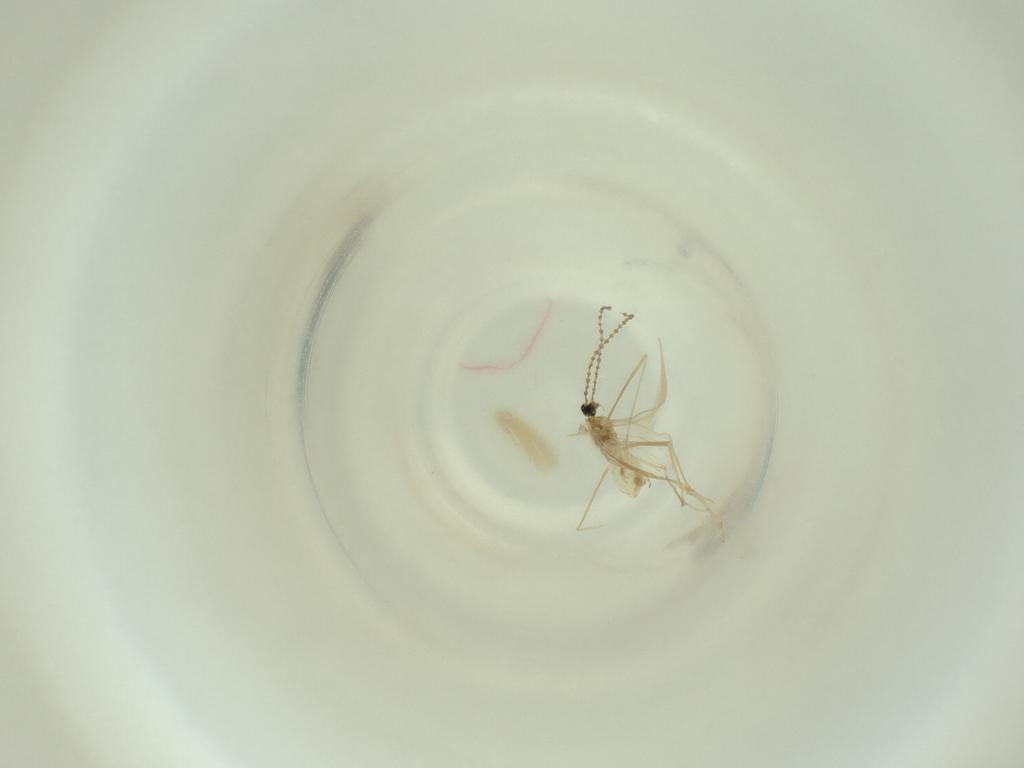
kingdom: Animalia
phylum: Arthropoda
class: Insecta
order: Diptera
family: Cecidomyiidae
